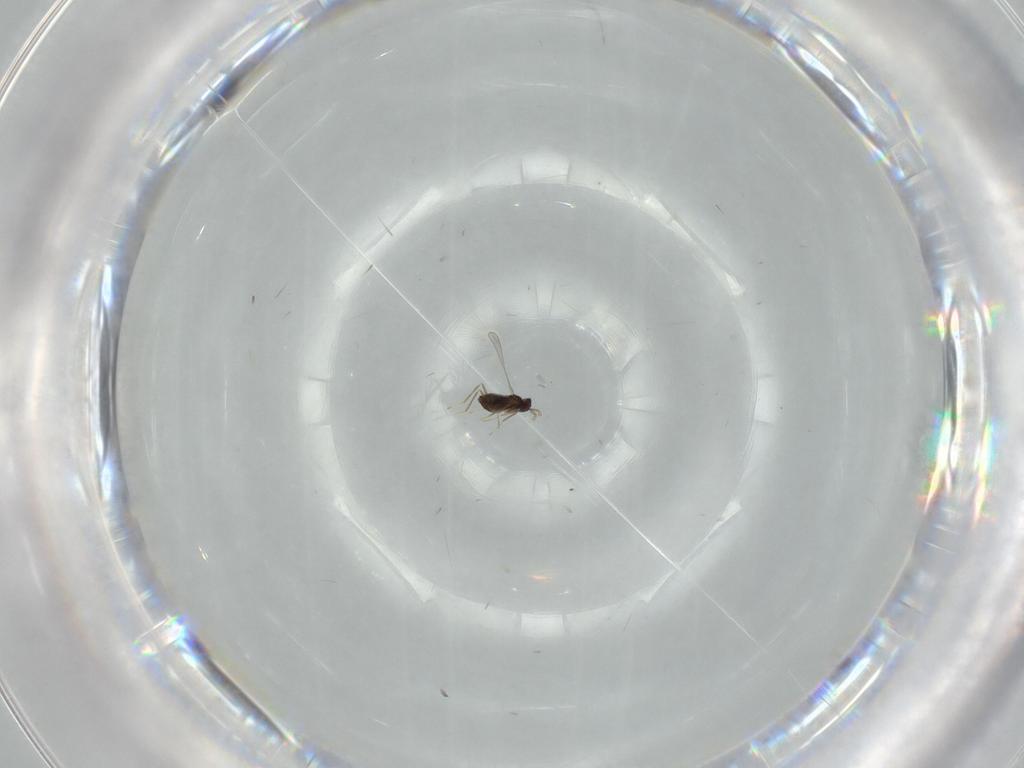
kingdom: Animalia
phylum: Arthropoda
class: Insecta
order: Hymenoptera
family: Mymaridae
